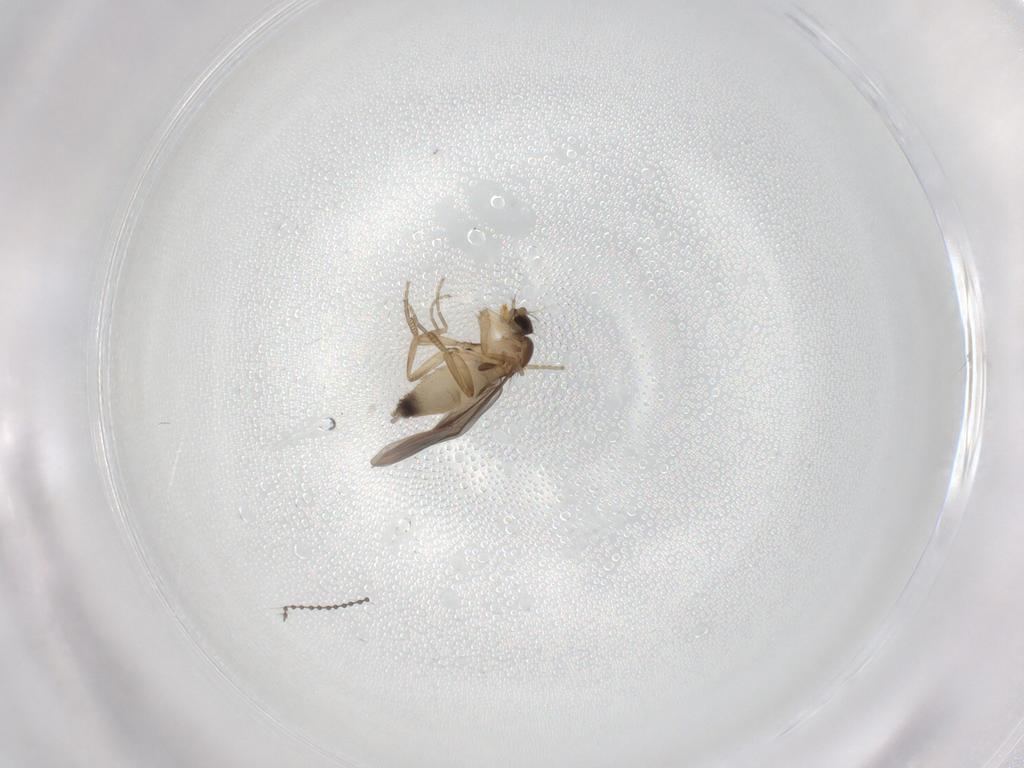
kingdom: Animalia
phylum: Arthropoda
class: Insecta
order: Diptera
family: Cecidomyiidae
